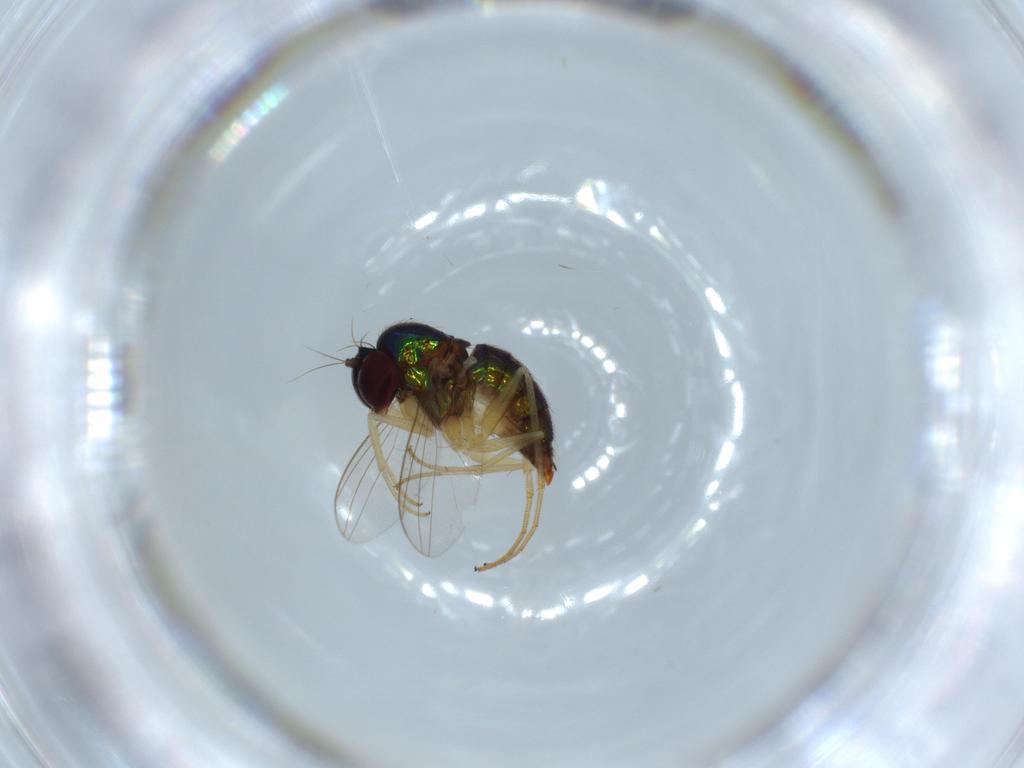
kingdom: Animalia
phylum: Arthropoda
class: Insecta
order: Diptera
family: Dolichopodidae
